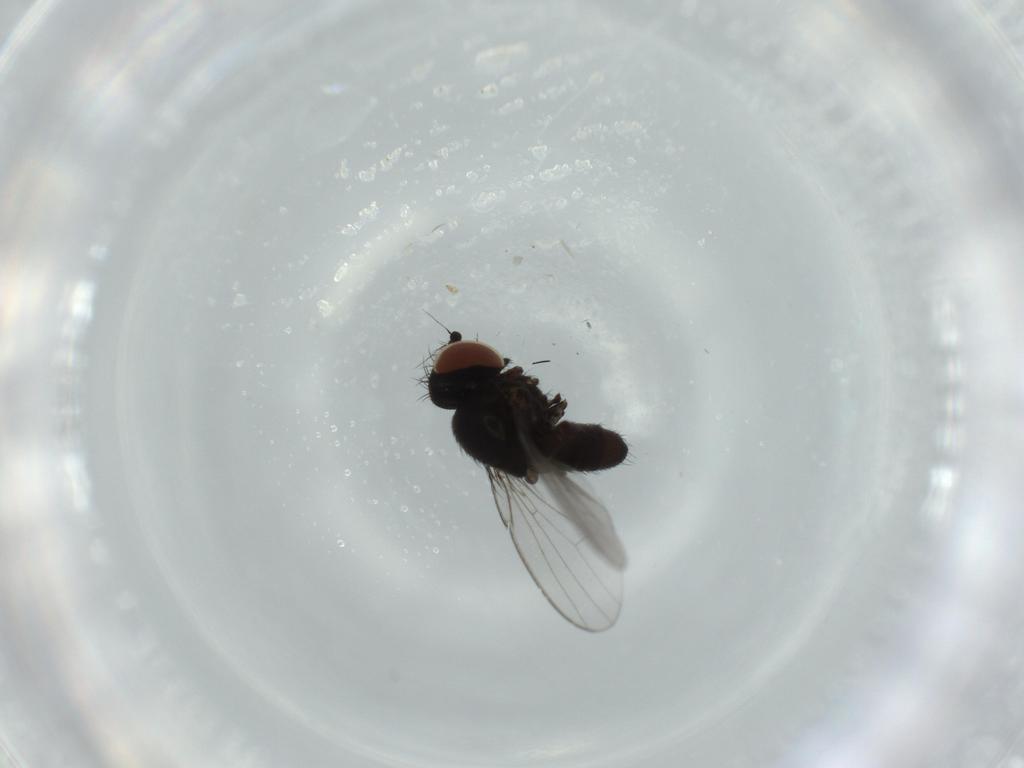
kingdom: Animalia
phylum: Arthropoda
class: Insecta
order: Diptera
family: Milichiidae
